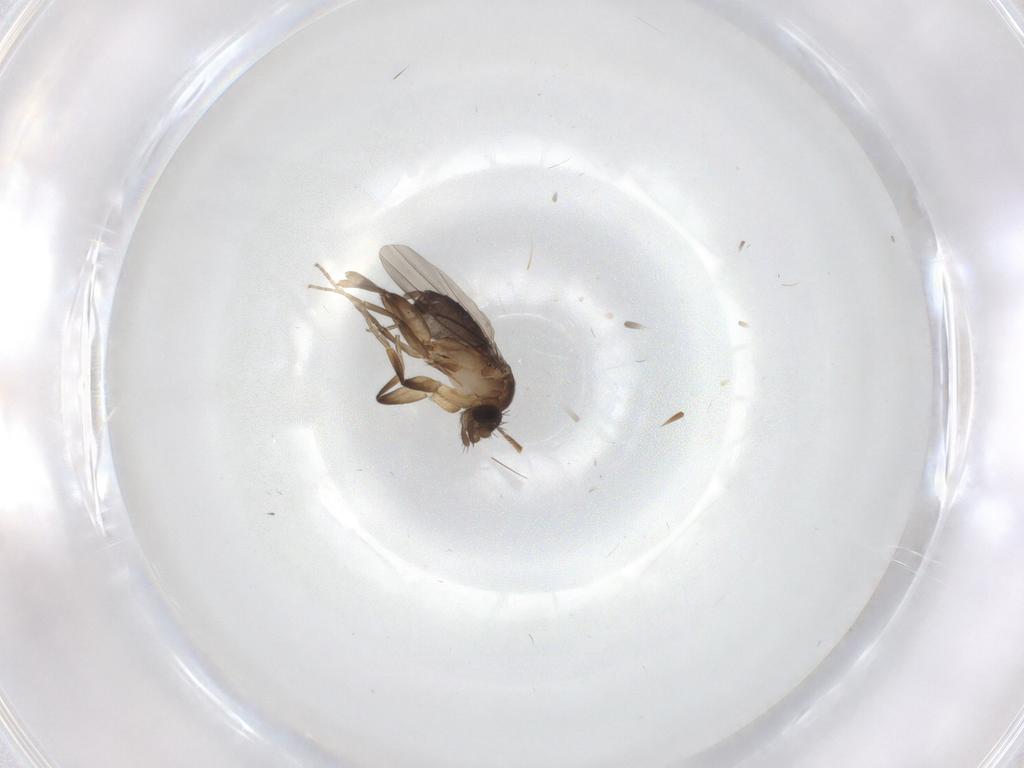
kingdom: Animalia
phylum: Arthropoda
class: Insecta
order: Diptera
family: Phoridae
